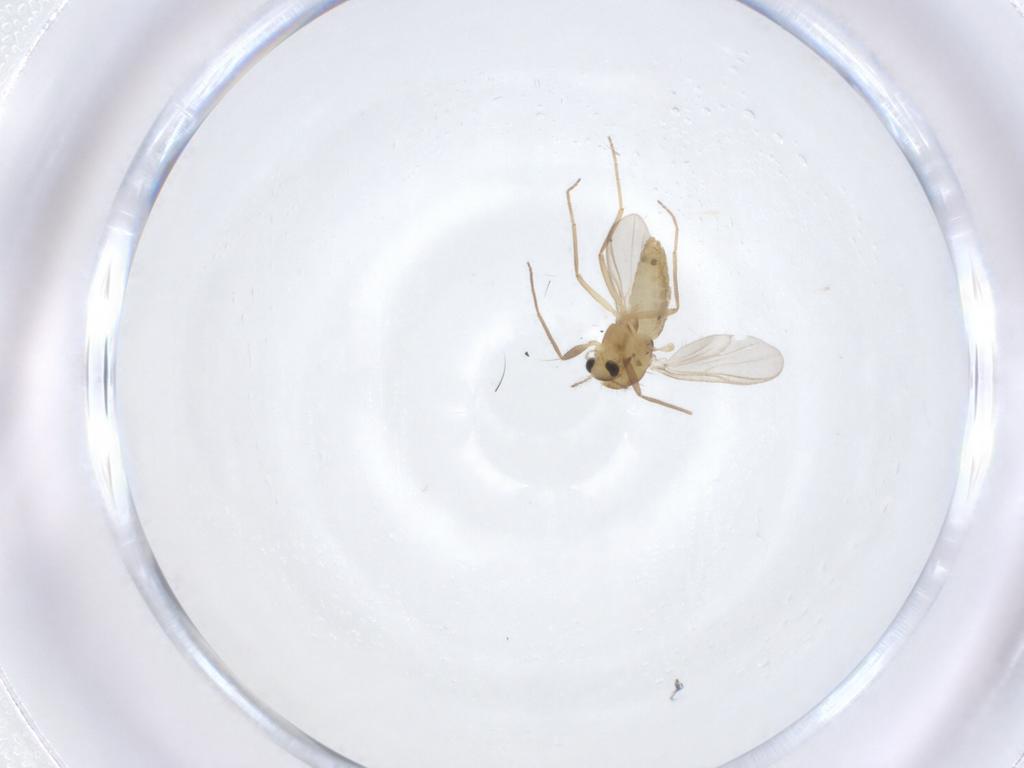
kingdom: Animalia
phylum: Arthropoda
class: Insecta
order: Diptera
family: Chironomidae
